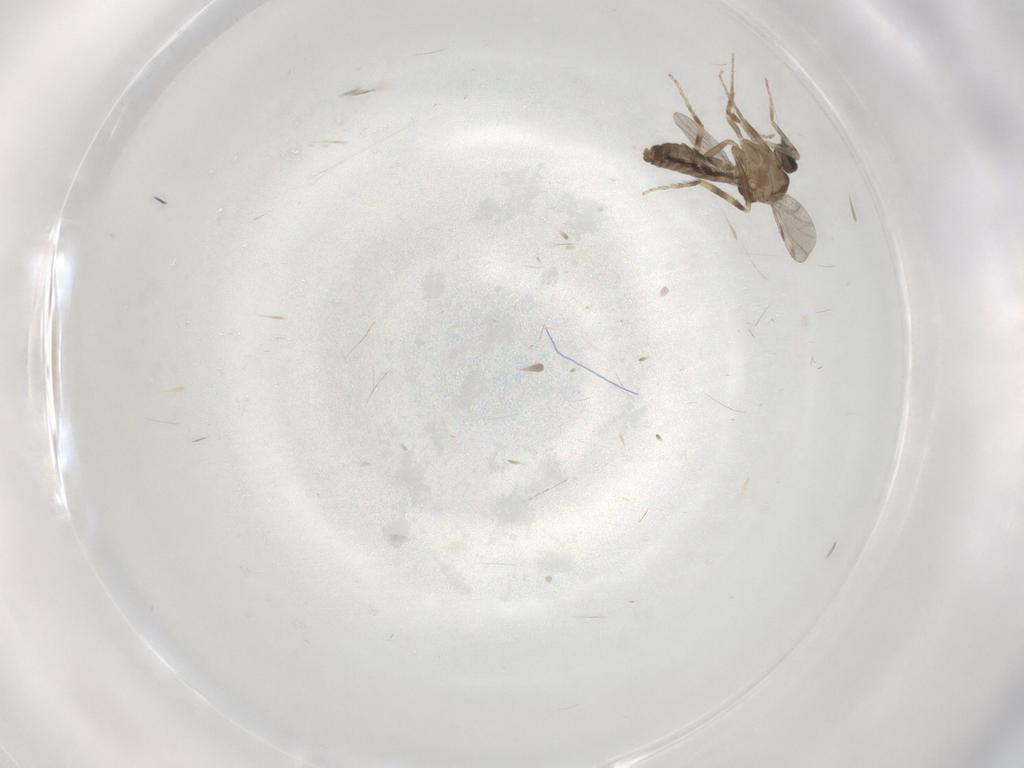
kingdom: Animalia
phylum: Arthropoda
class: Insecta
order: Diptera
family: Ceratopogonidae
